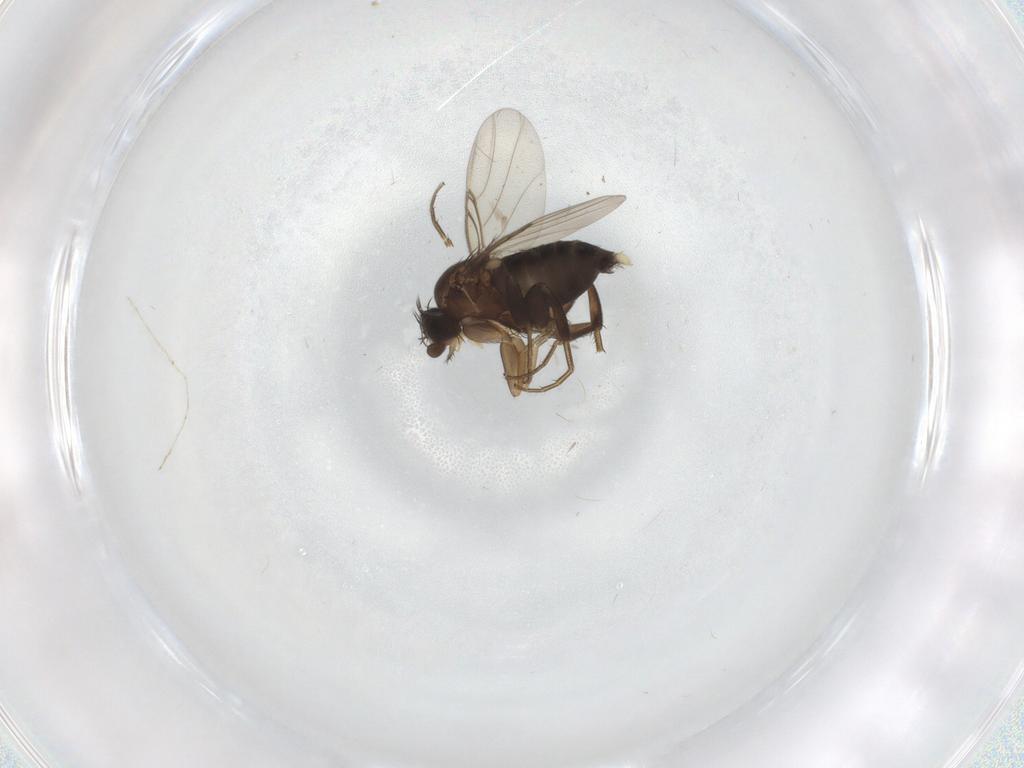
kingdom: Animalia
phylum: Arthropoda
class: Insecta
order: Diptera
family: Phoridae
